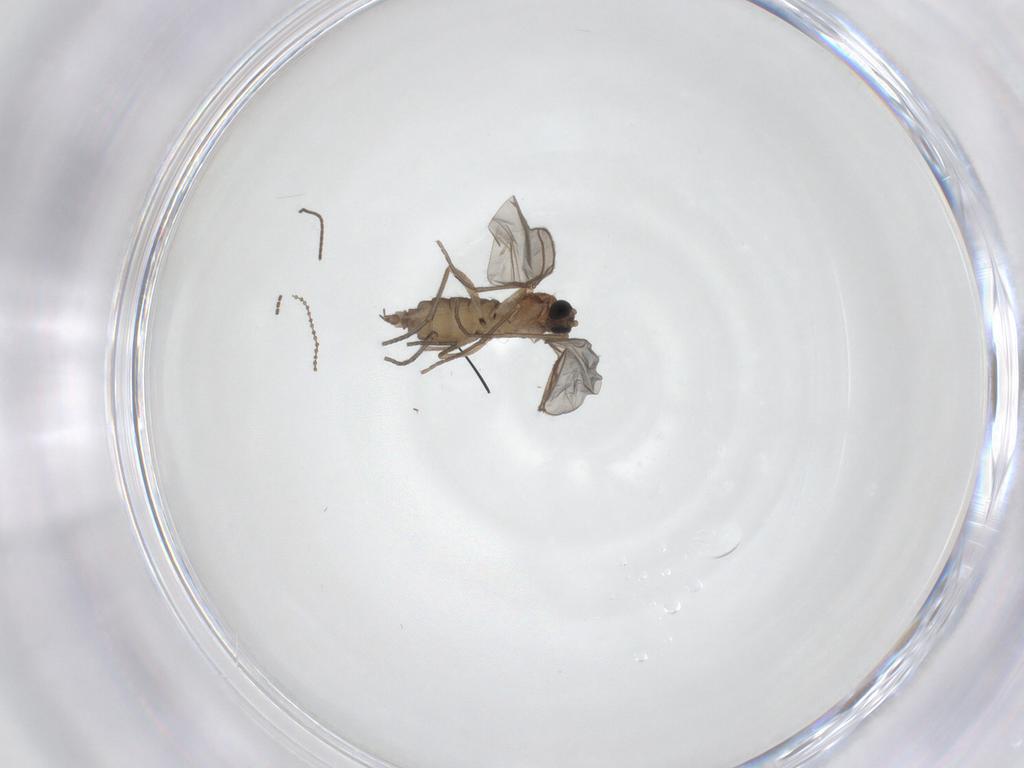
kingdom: Animalia
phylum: Arthropoda
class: Insecta
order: Diptera
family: Sciaridae
